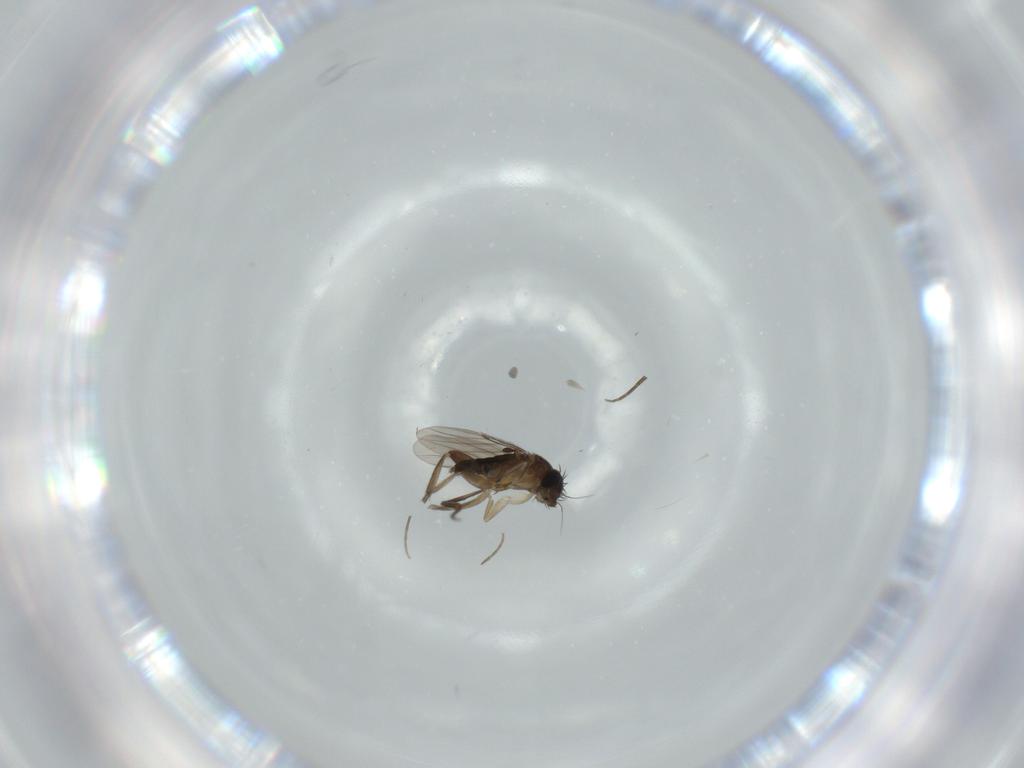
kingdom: Animalia
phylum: Arthropoda
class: Insecta
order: Diptera
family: Phoridae
